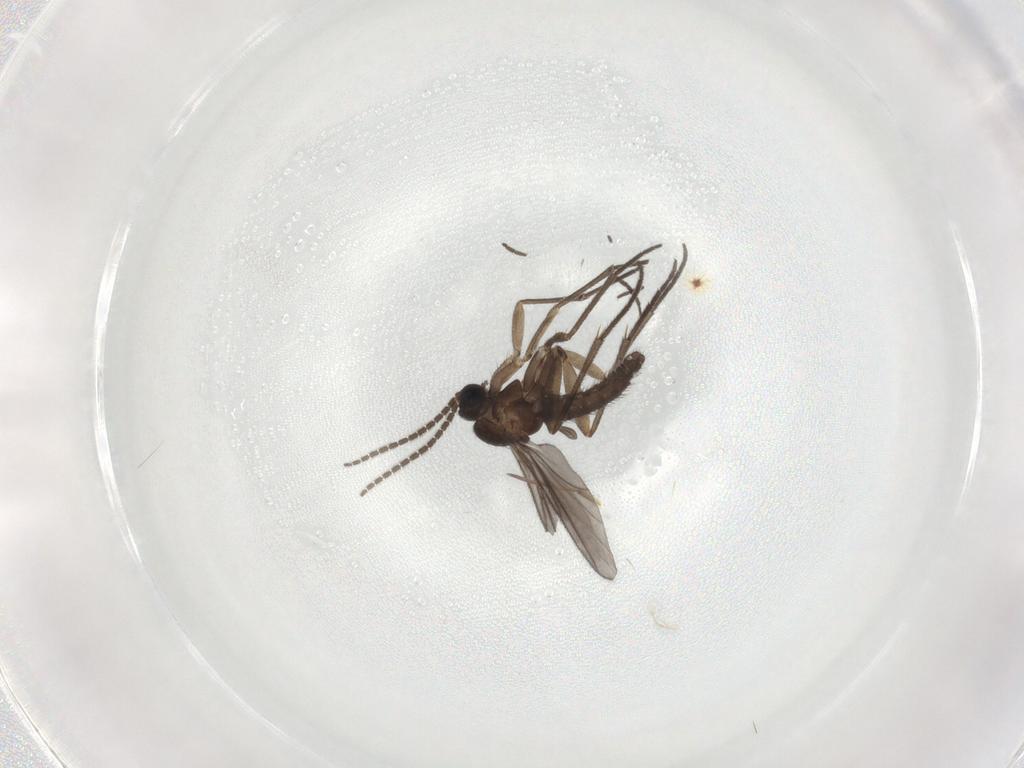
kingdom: Animalia
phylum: Arthropoda
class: Insecta
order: Diptera
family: Sciaridae
